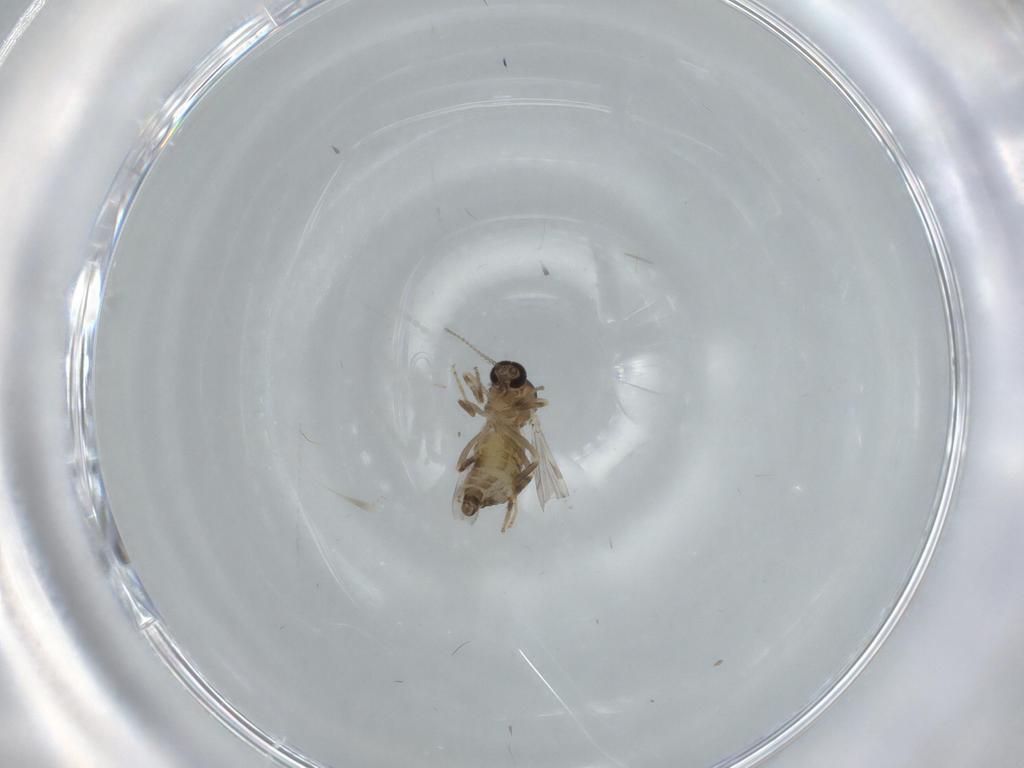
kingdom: Animalia
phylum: Arthropoda
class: Insecta
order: Diptera
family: Ceratopogonidae
